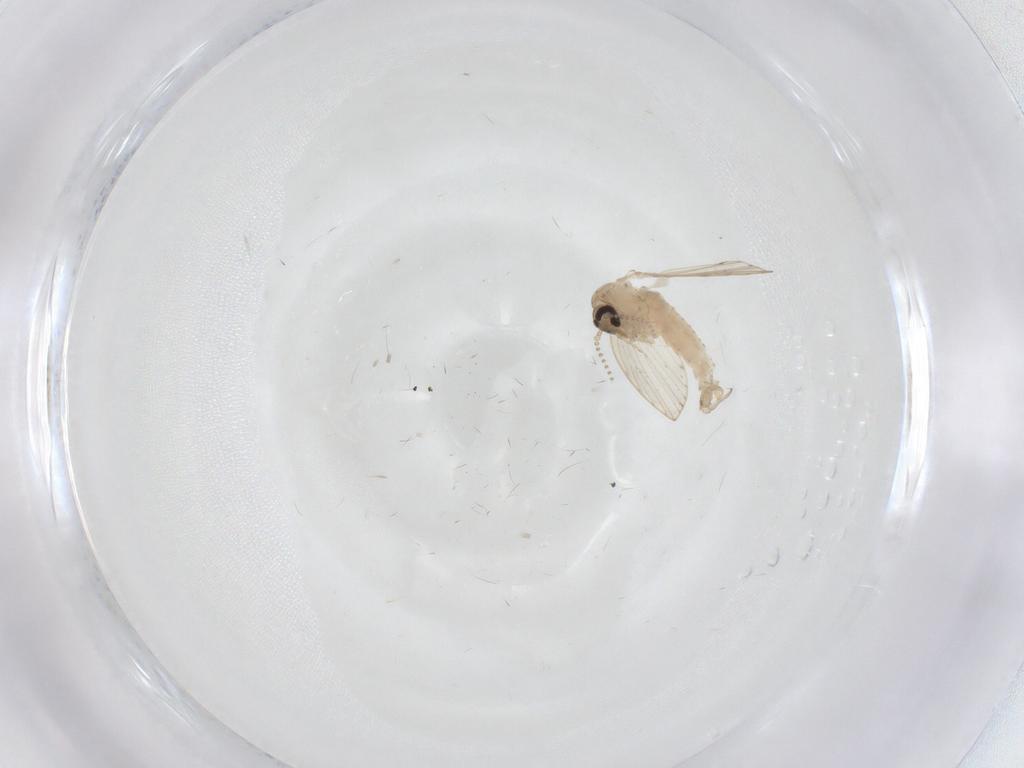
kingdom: Animalia
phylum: Arthropoda
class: Insecta
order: Diptera
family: Psychodidae
